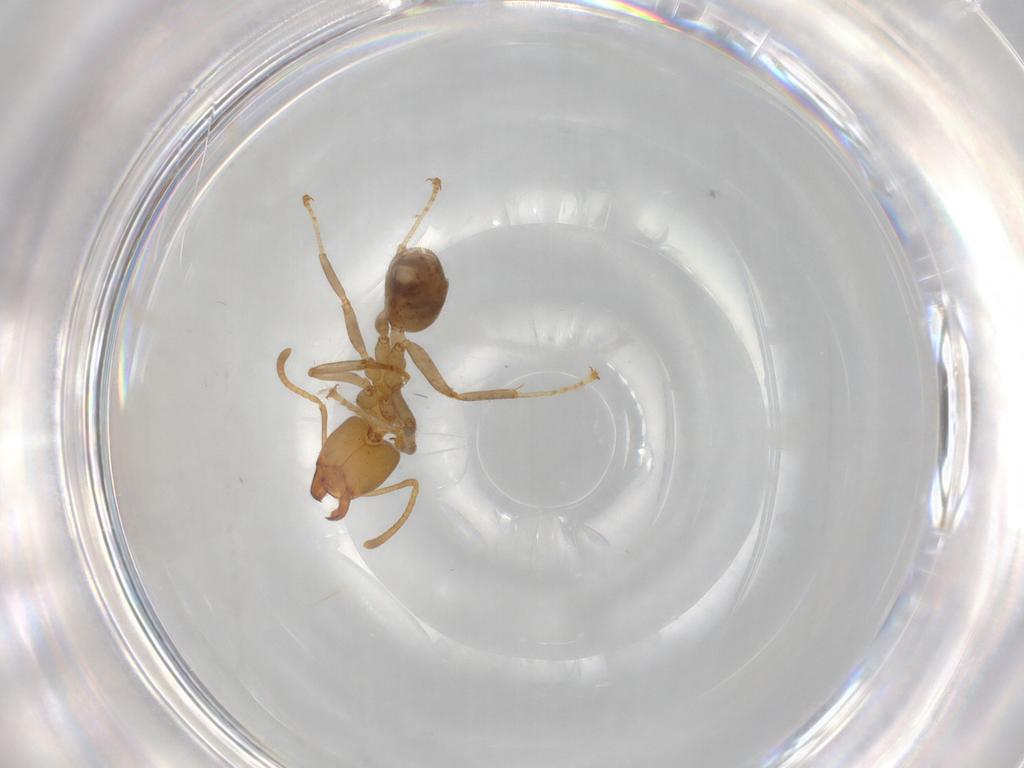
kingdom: Animalia
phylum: Arthropoda
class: Insecta
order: Hymenoptera
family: Formicidae
